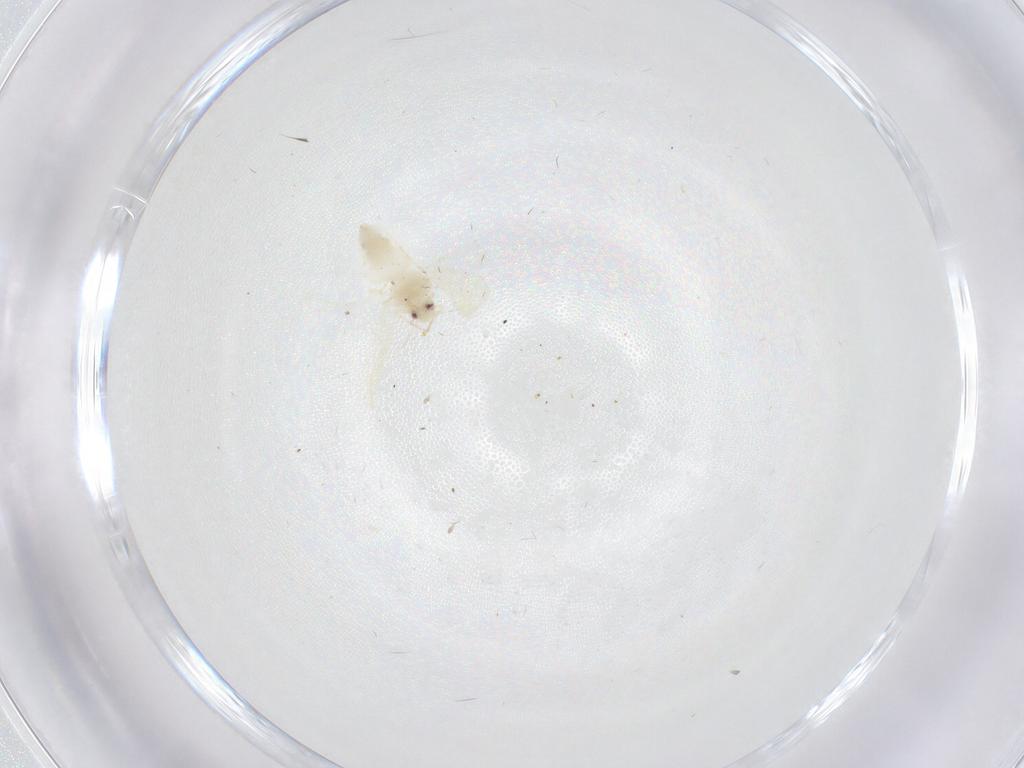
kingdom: Animalia
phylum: Arthropoda
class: Insecta
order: Hemiptera
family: Aleyrodidae
